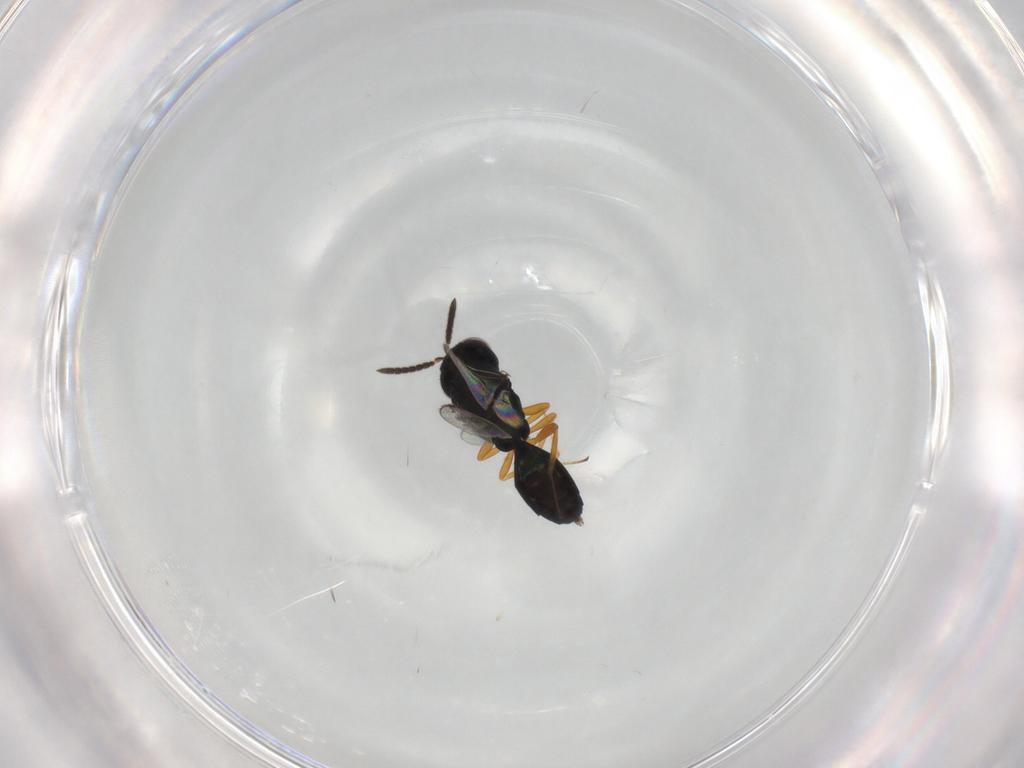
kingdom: Animalia
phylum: Arthropoda
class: Insecta
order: Hymenoptera
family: Pteromalidae
